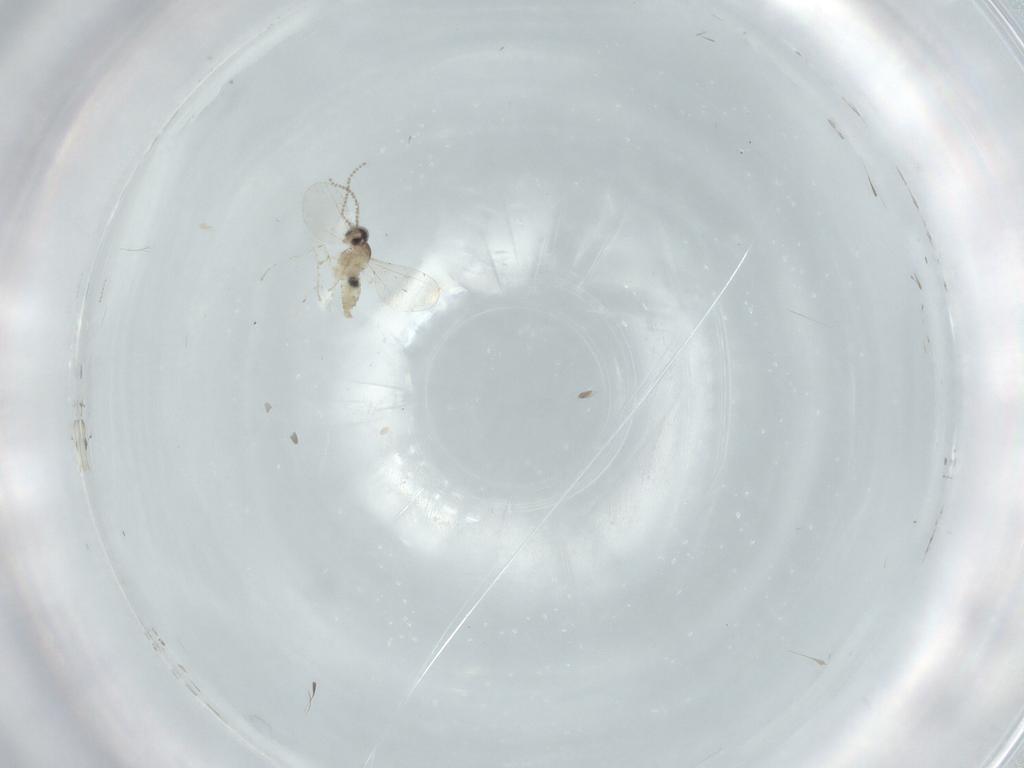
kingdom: Animalia
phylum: Arthropoda
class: Insecta
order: Diptera
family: Cecidomyiidae
